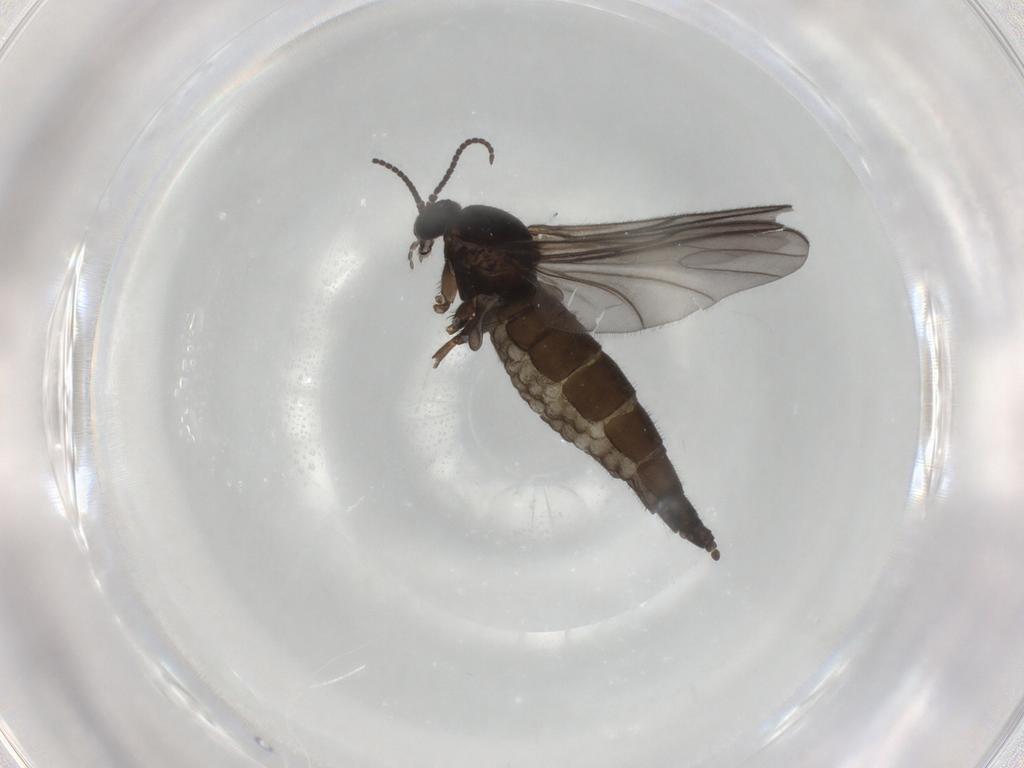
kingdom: Animalia
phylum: Arthropoda
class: Insecta
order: Diptera
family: Sciaridae
